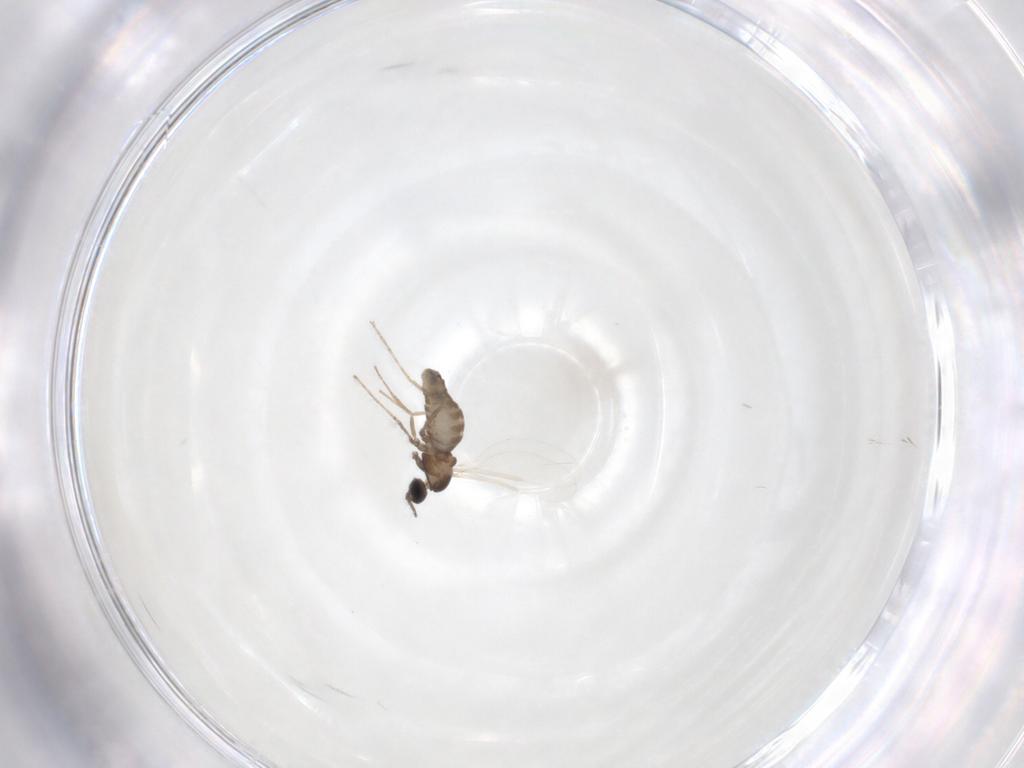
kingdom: Animalia
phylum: Arthropoda
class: Insecta
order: Diptera
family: Cecidomyiidae
